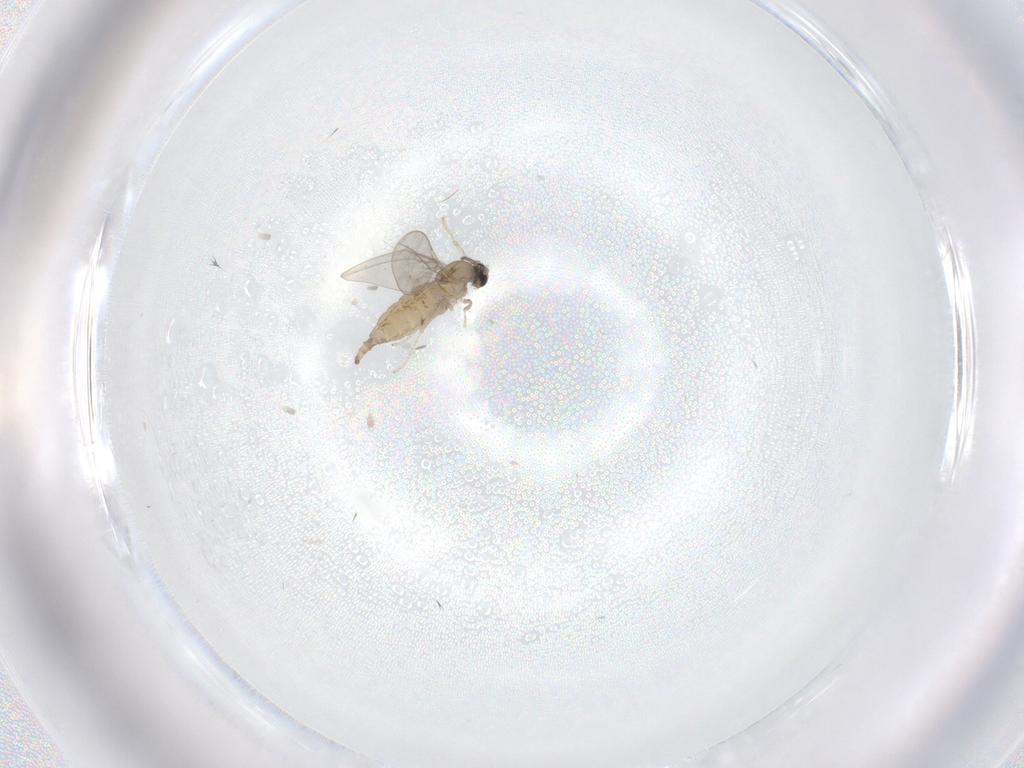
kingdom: Animalia
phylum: Arthropoda
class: Insecta
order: Diptera
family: Cecidomyiidae
